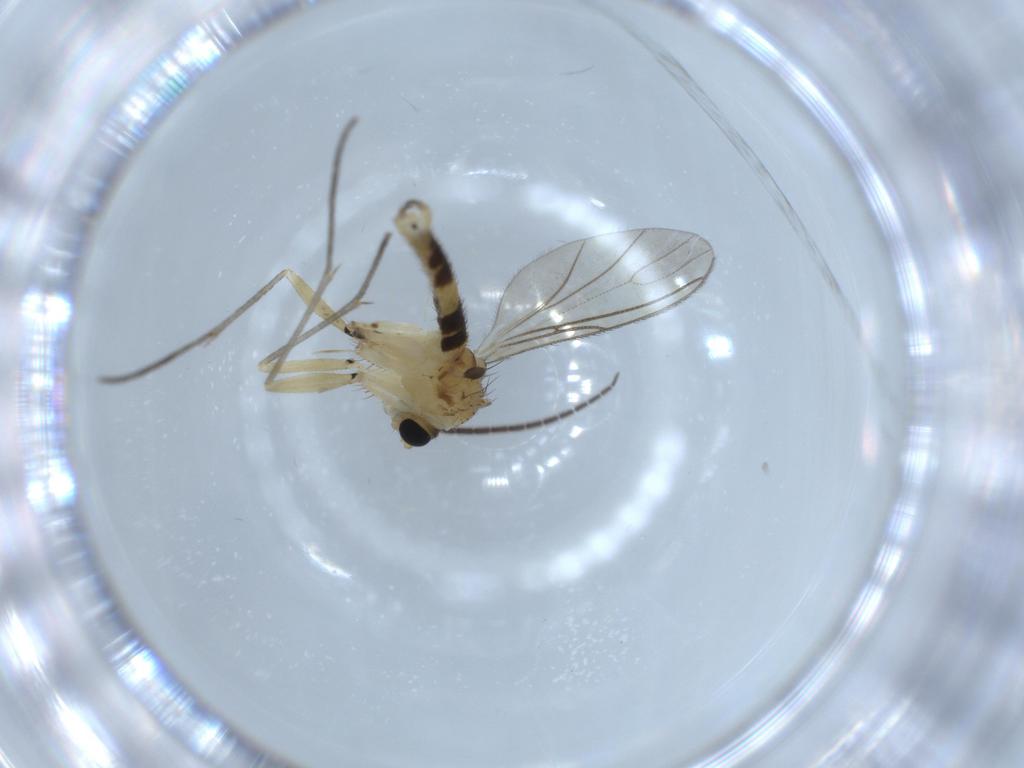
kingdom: Animalia
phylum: Arthropoda
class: Insecta
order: Diptera
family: Sciaridae
